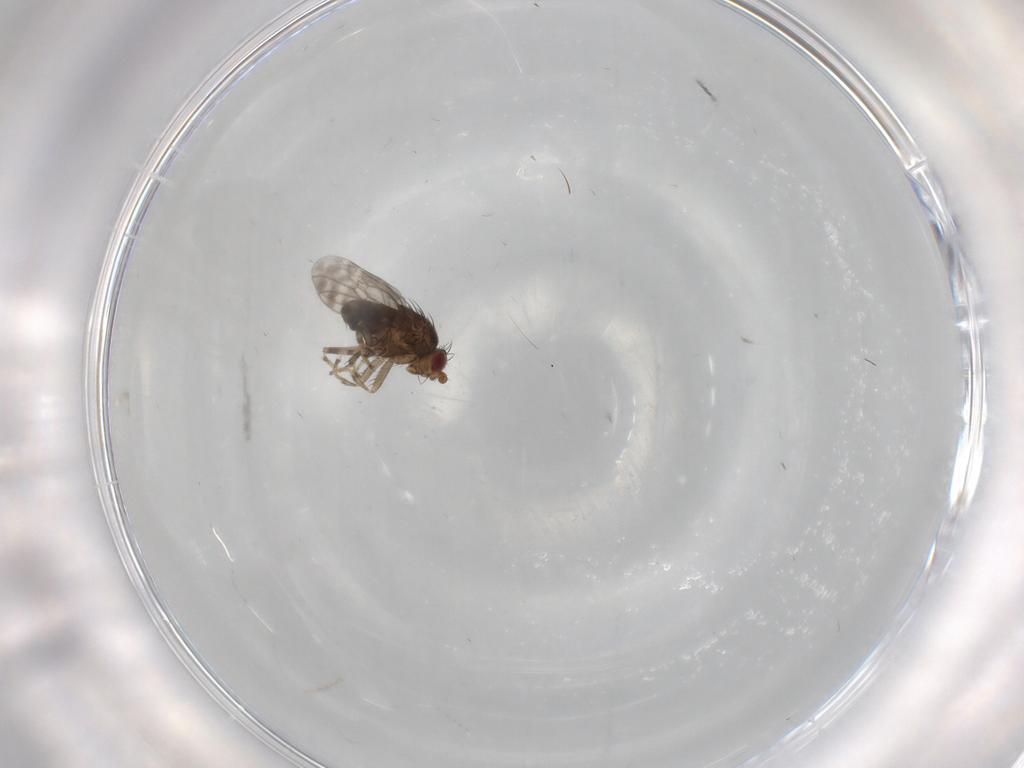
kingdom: Animalia
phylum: Arthropoda
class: Insecta
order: Diptera
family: Sphaeroceridae
